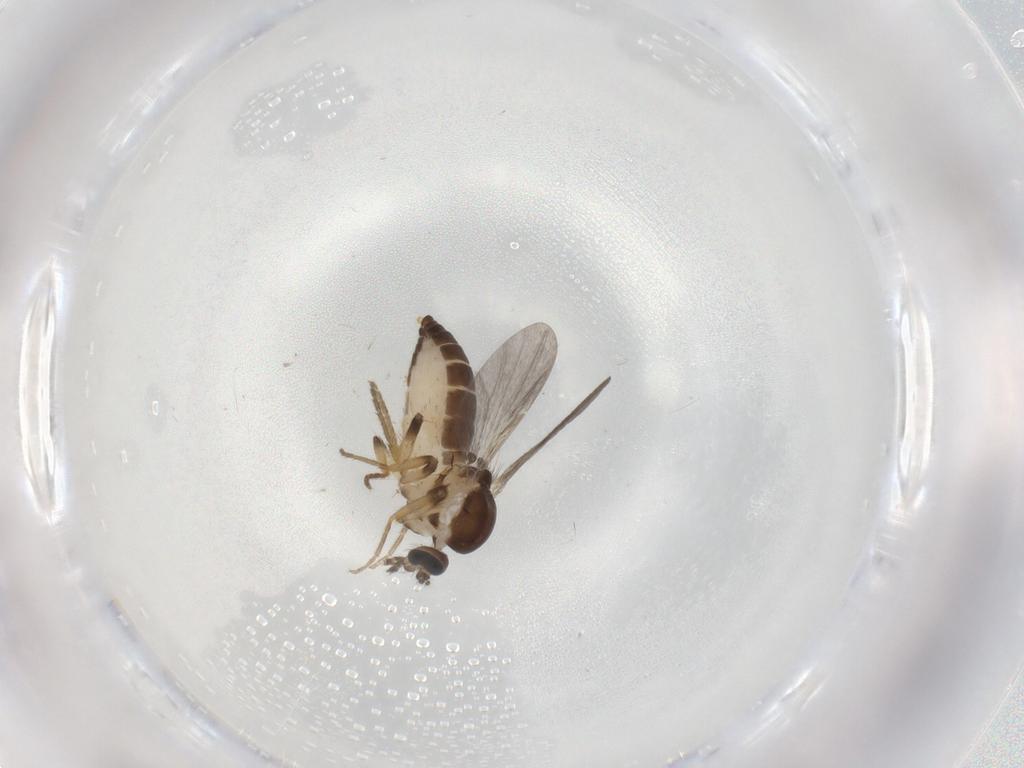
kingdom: Animalia
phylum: Arthropoda
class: Insecta
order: Diptera
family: Ceratopogonidae
